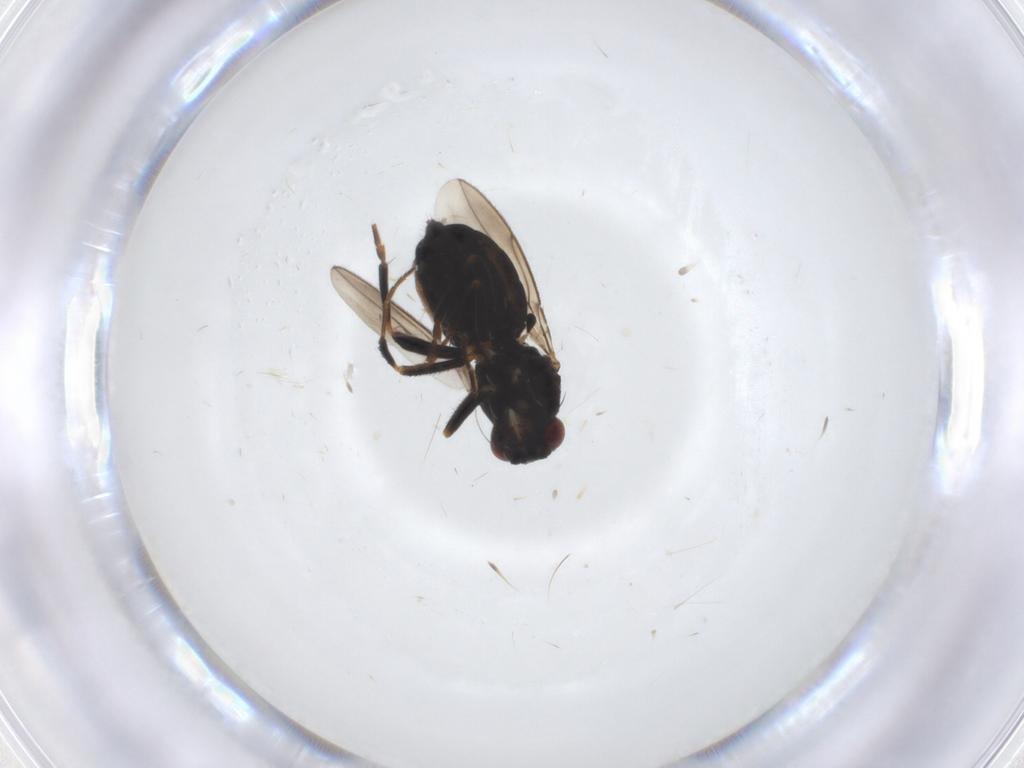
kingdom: Animalia
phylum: Arthropoda
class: Insecta
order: Diptera
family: Sphaeroceridae
